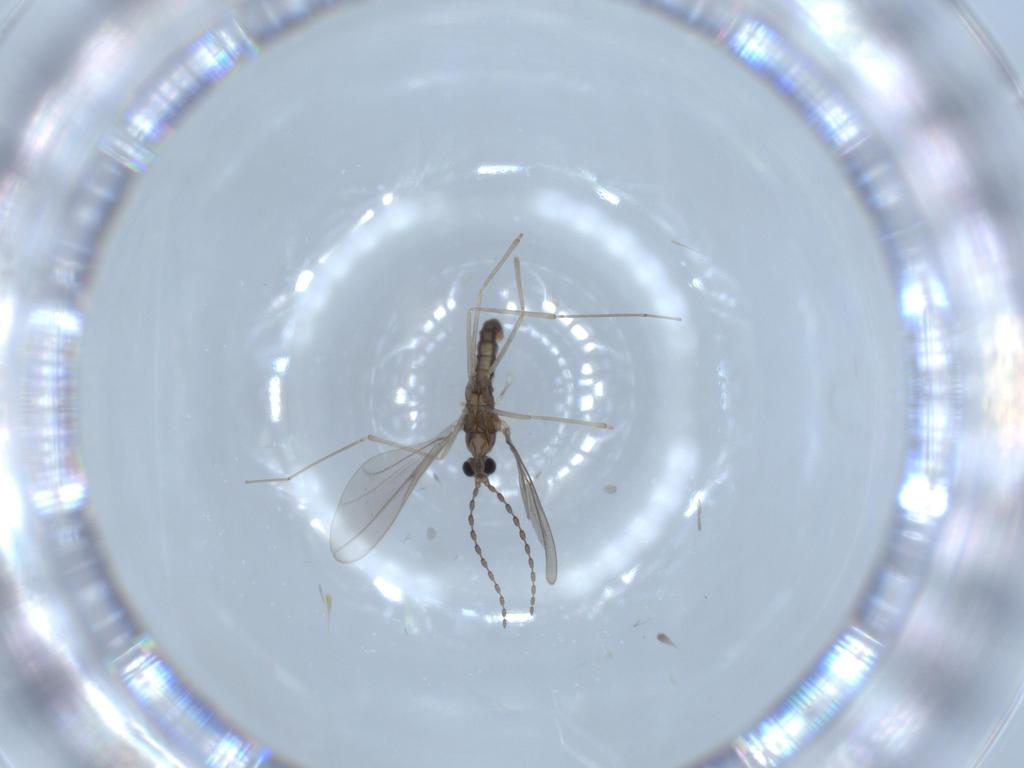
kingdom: Animalia
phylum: Arthropoda
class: Insecta
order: Diptera
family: Cecidomyiidae
